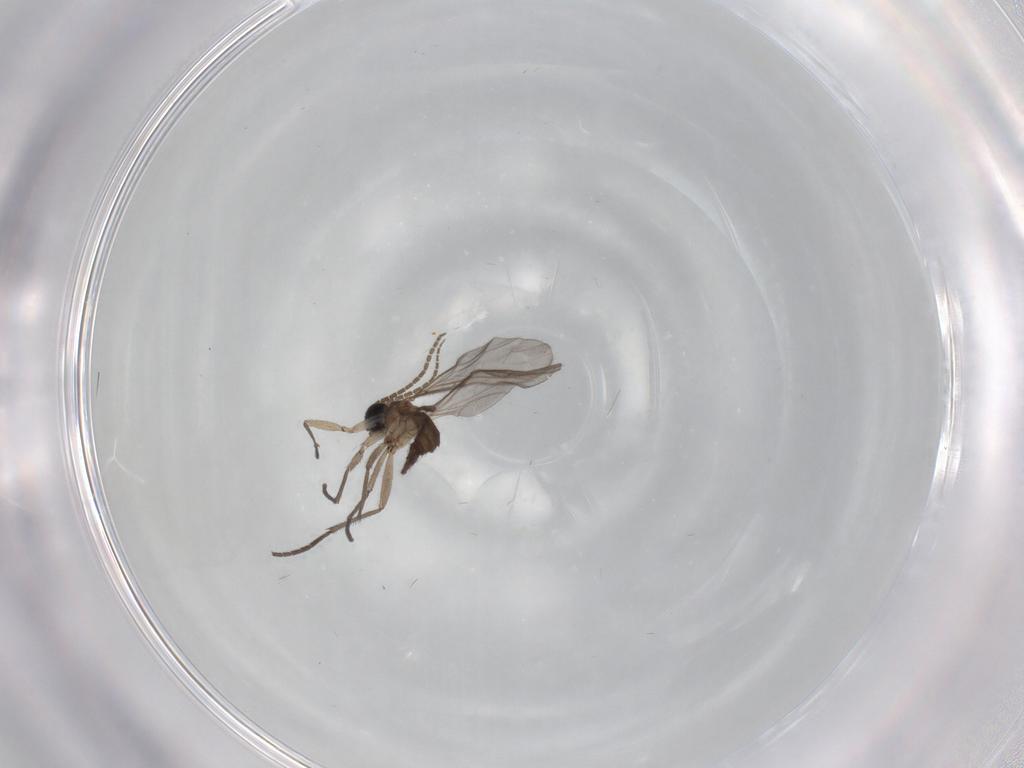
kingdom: Animalia
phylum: Arthropoda
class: Insecta
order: Diptera
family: Sciaridae
